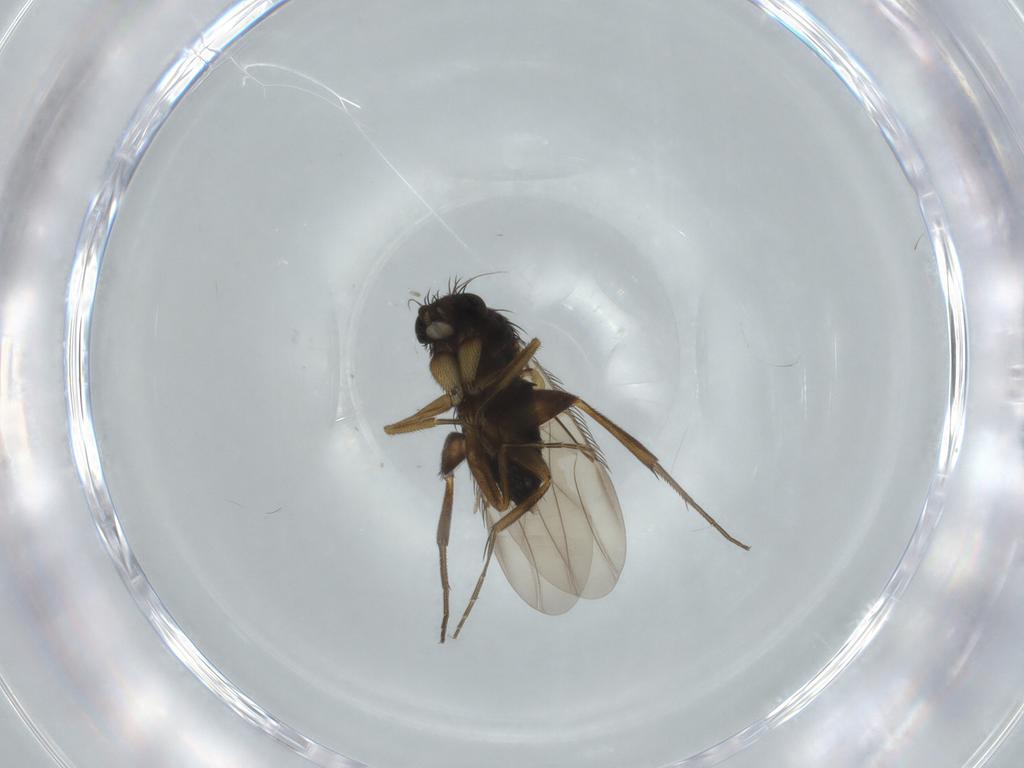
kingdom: Animalia
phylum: Arthropoda
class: Insecta
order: Diptera
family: Phoridae
